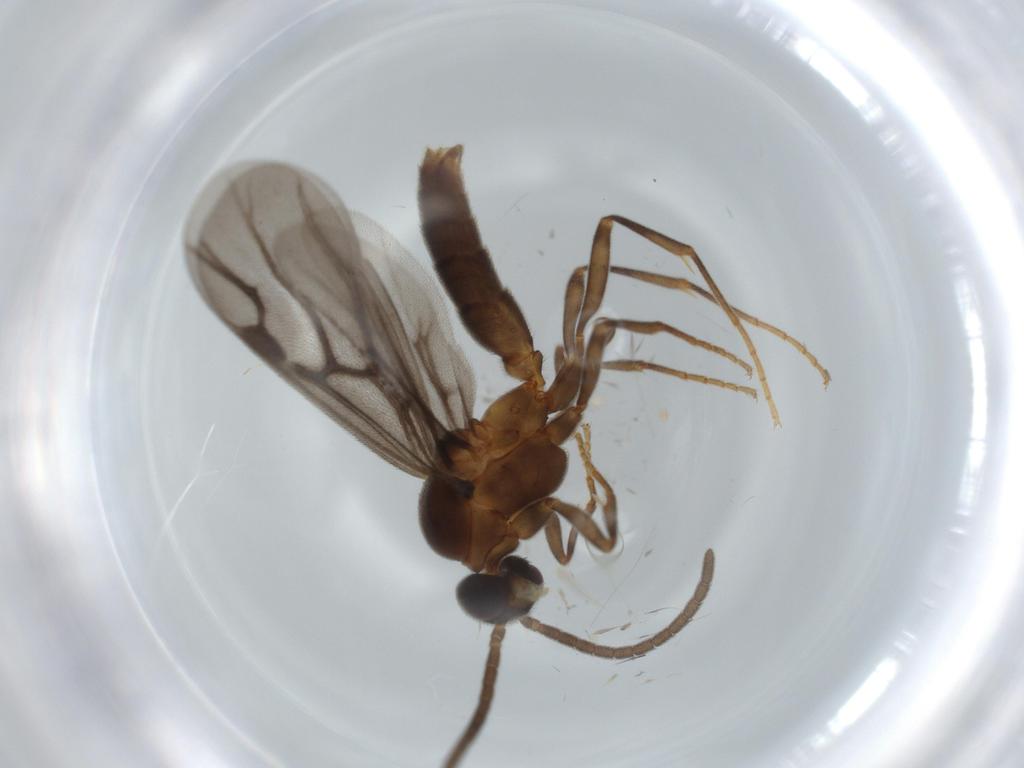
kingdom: Animalia
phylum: Arthropoda
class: Insecta
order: Hymenoptera
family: Formicidae
